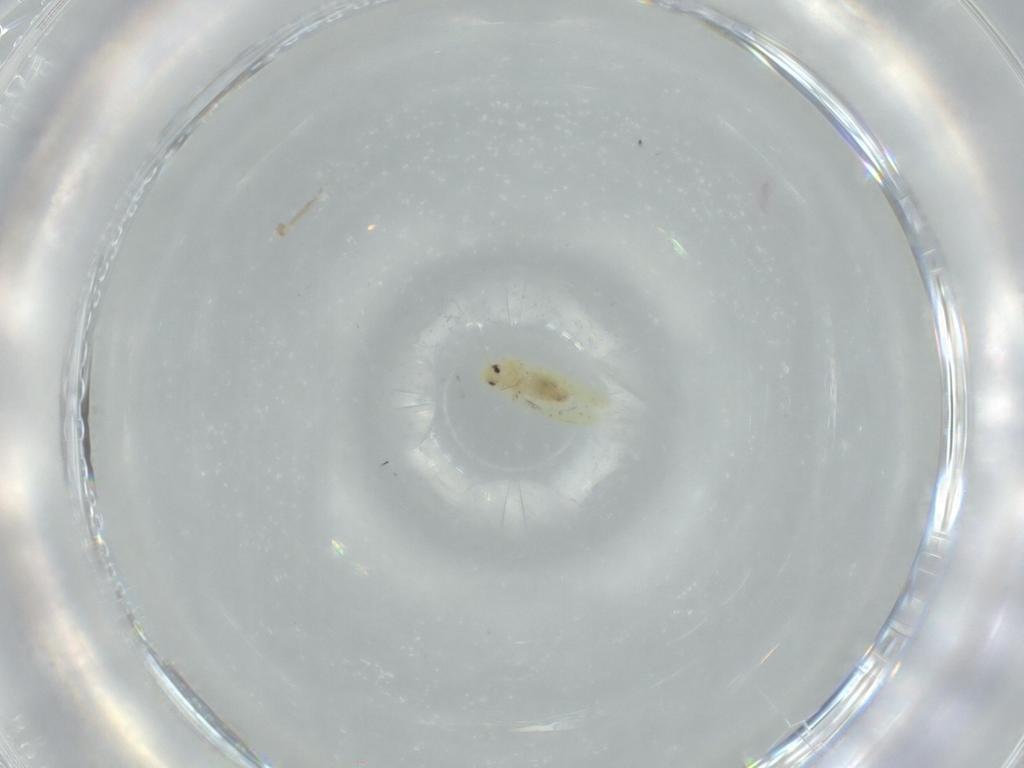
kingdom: Animalia
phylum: Arthropoda
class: Insecta
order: Hemiptera
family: Aleyrodidae
